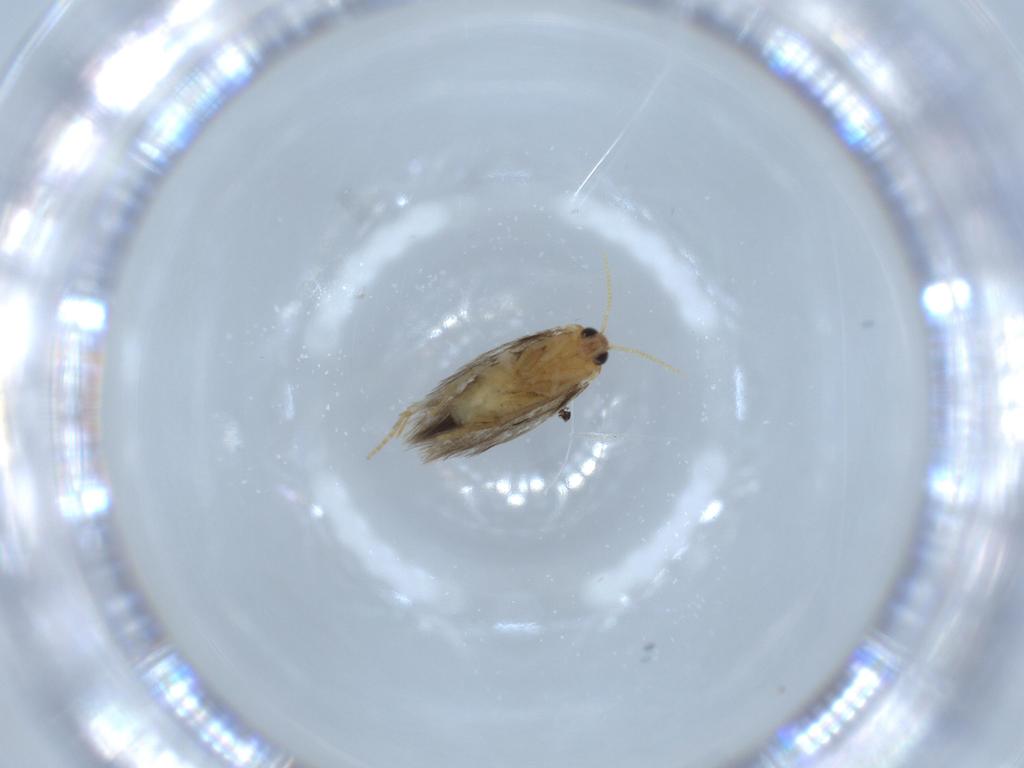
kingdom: Animalia
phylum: Arthropoda
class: Insecta
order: Lepidoptera
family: Copromorphidae
